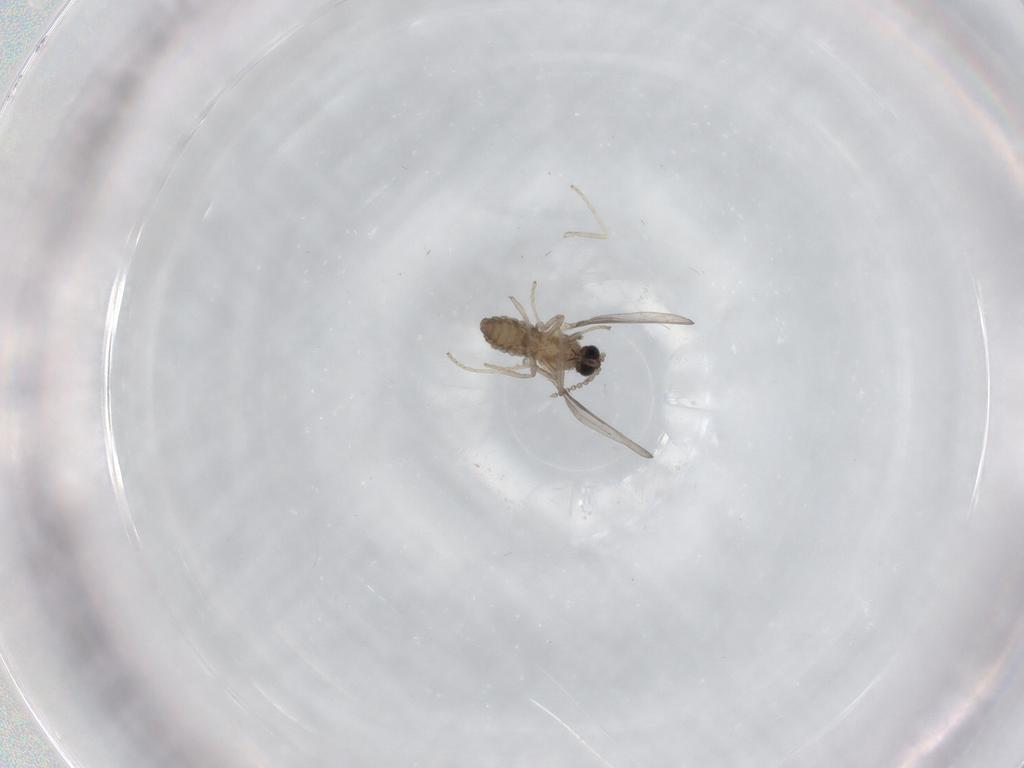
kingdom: Animalia
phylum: Arthropoda
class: Insecta
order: Diptera
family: Cecidomyiidae
